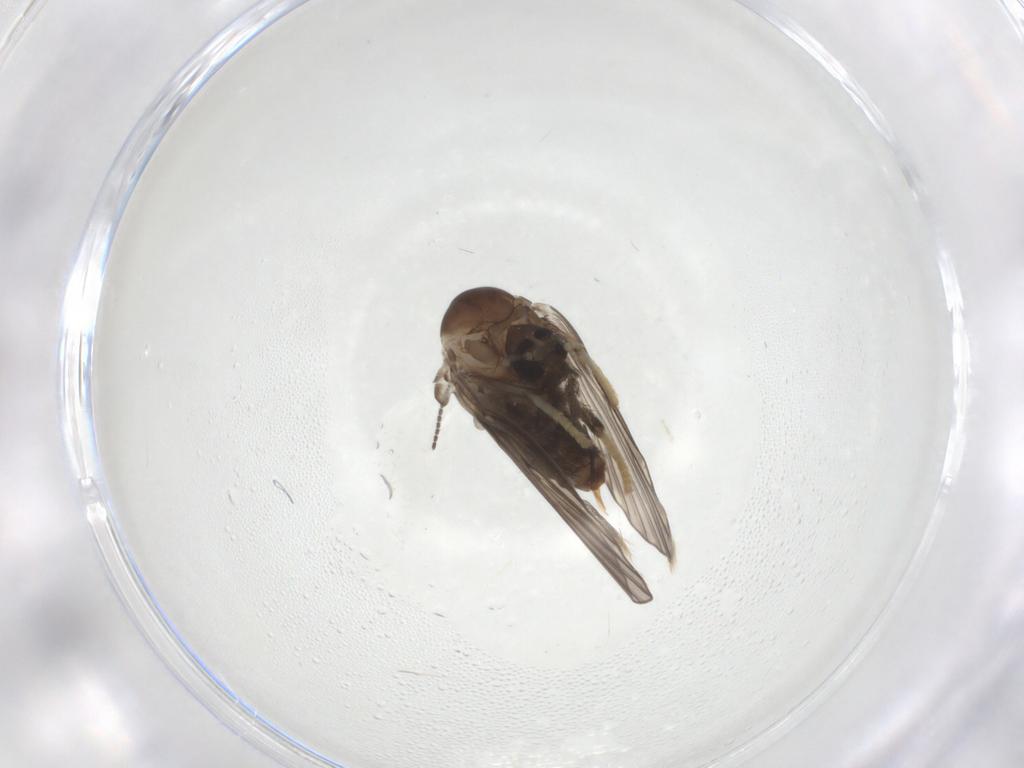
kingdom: Animalia
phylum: Arthropoda
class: Insecta
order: Diptera
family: Psychodidae
